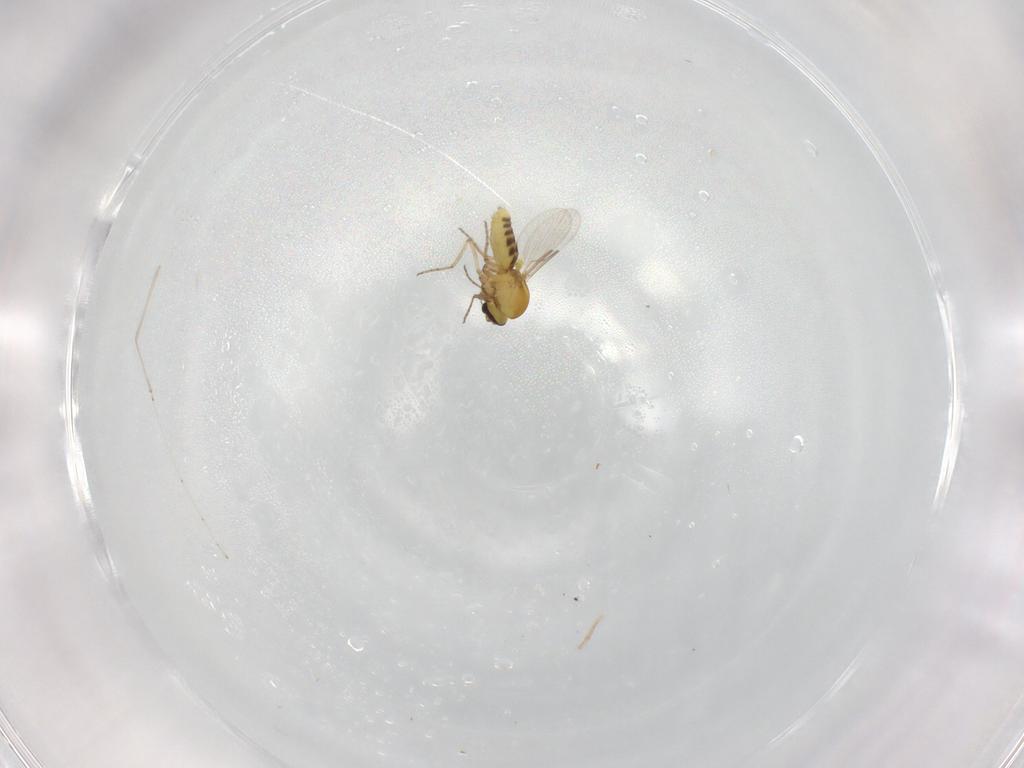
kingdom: Animalia
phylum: Arthropoda
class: Insecta
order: Diptera
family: Ceratopogonidae
